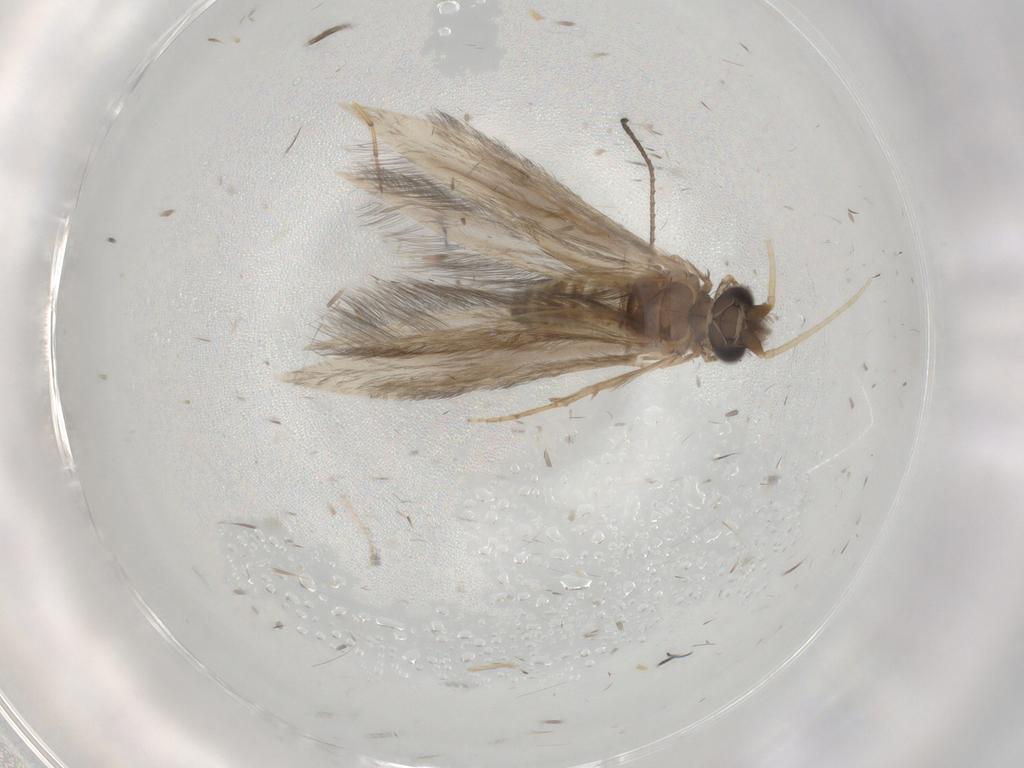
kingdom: Animalia
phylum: Arthropoda
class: Insecta
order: Trichoptera
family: Hydroptilidae
